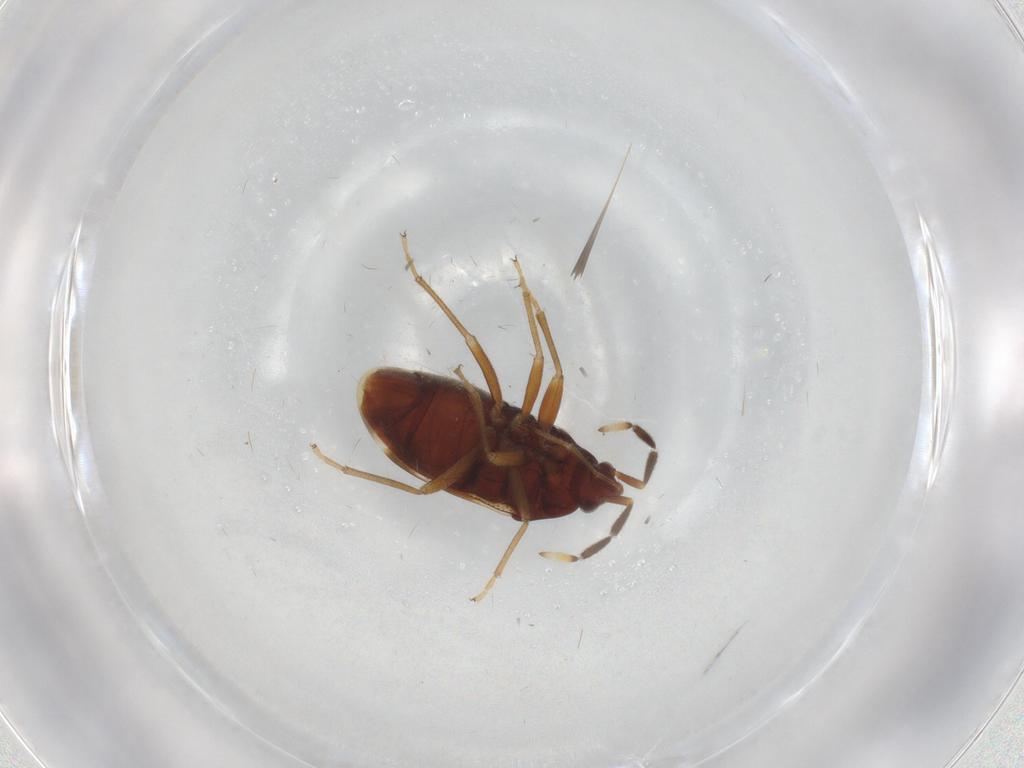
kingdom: Animalia
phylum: Arthropoda
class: Insecta
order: Hemiptera
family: Rhyparochromidae
